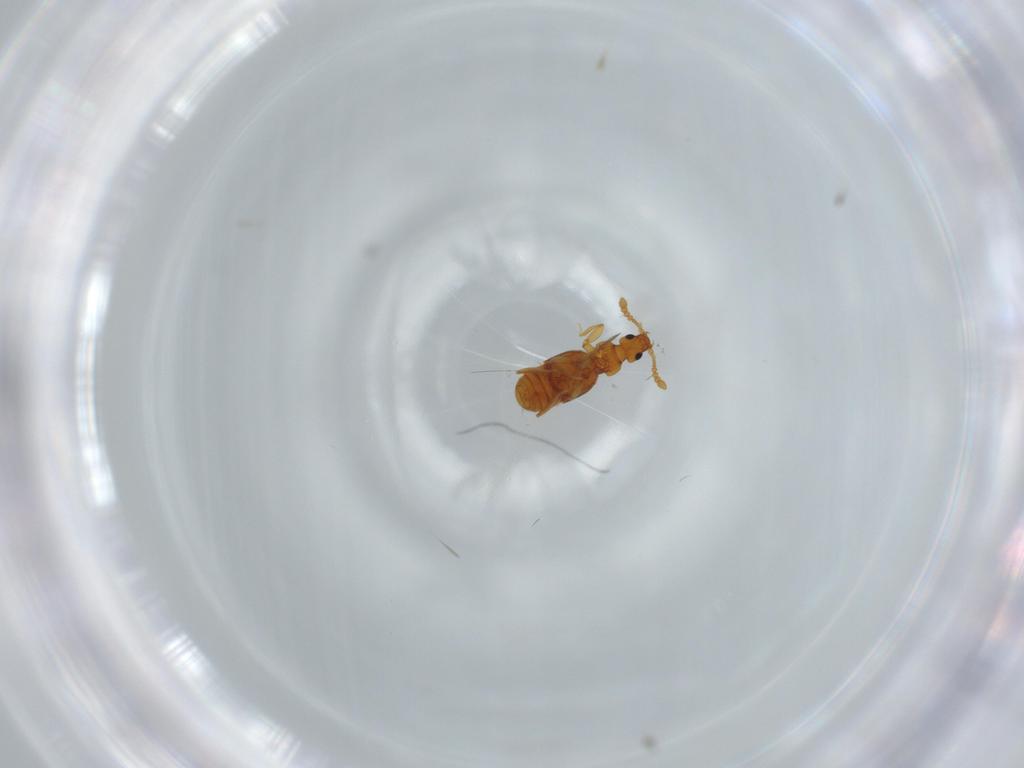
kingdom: Animalia
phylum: Arthropoda
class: Insecta
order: Coleoptera
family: Staphylinidae
